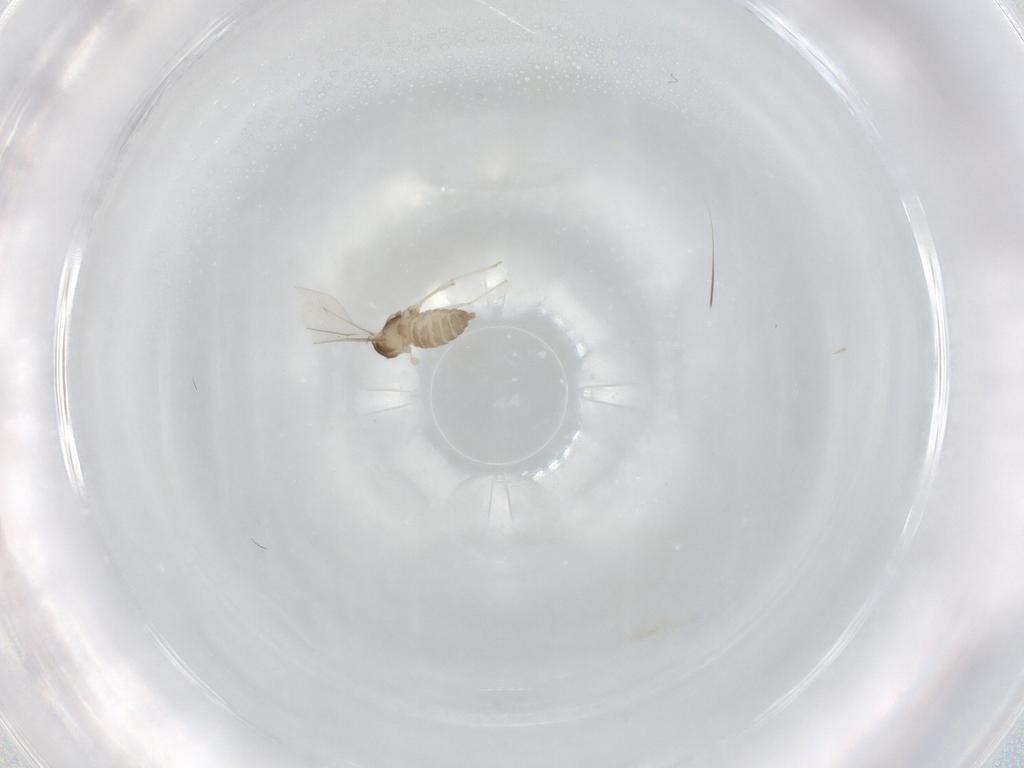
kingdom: Animalia
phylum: Arthropoda
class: Insecta
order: Diptera
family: Cecidomyiidae
